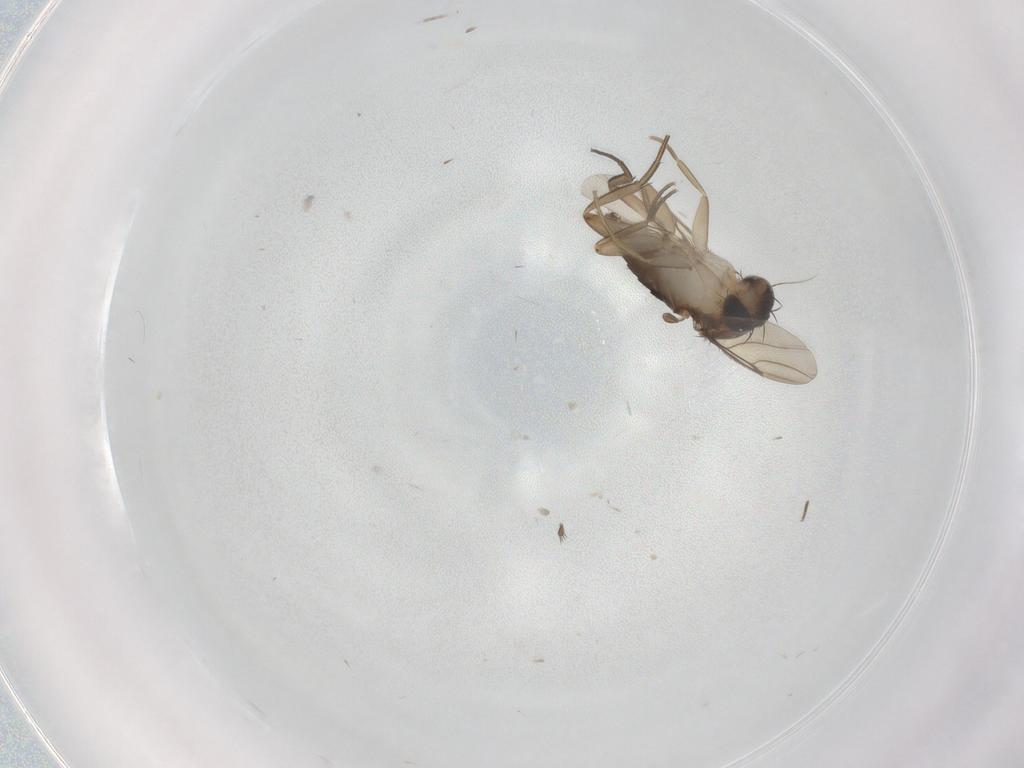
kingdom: Animalia
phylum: Arthropoda
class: Insecta
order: Diptera
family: Phoridae
